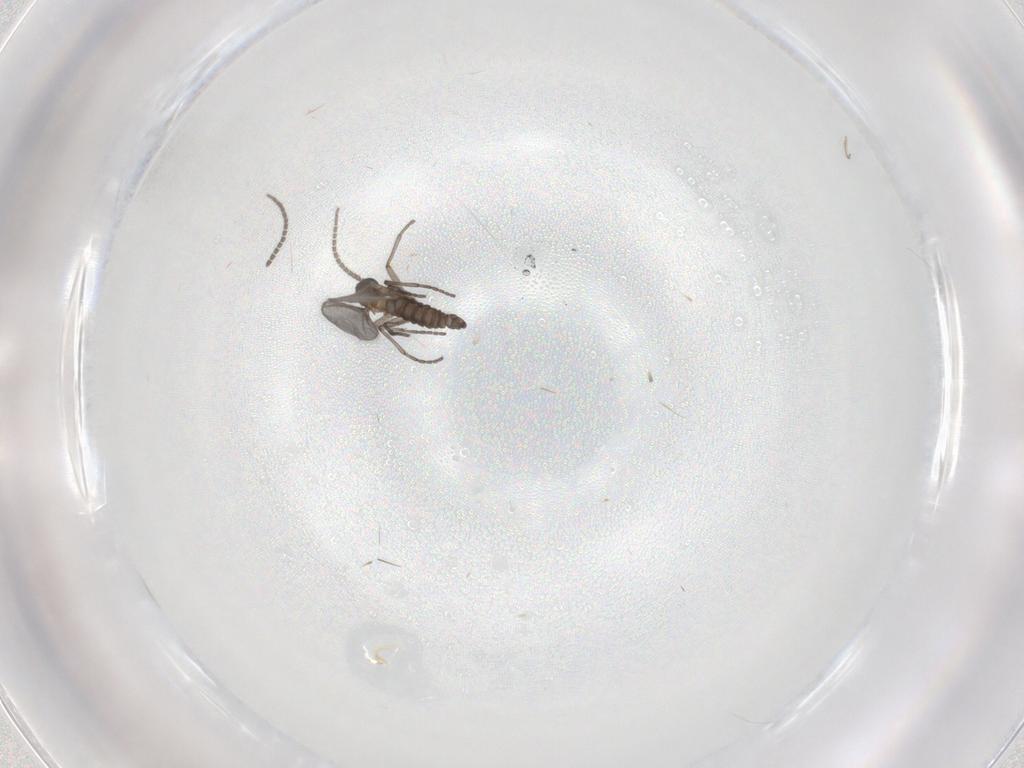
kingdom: Animalia
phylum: Arthropoda
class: Insecta
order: Diptera
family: Sciaridae
